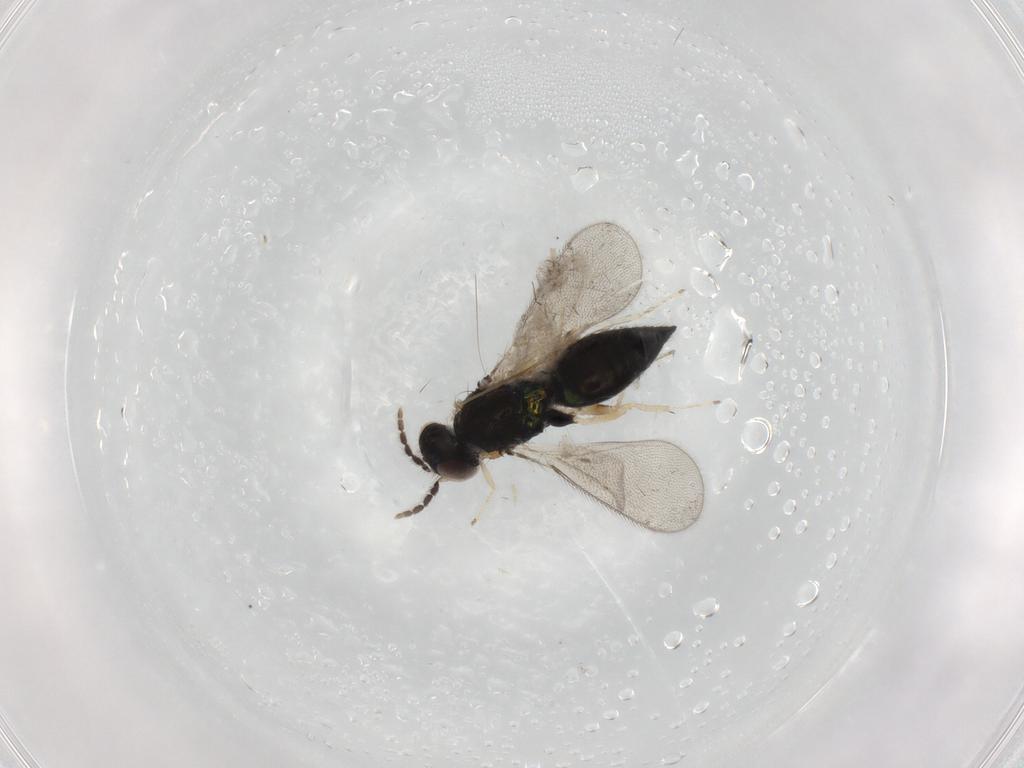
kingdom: Animalia
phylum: Arthropoda
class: Insecta
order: Hymenoptera
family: Eulophidae
